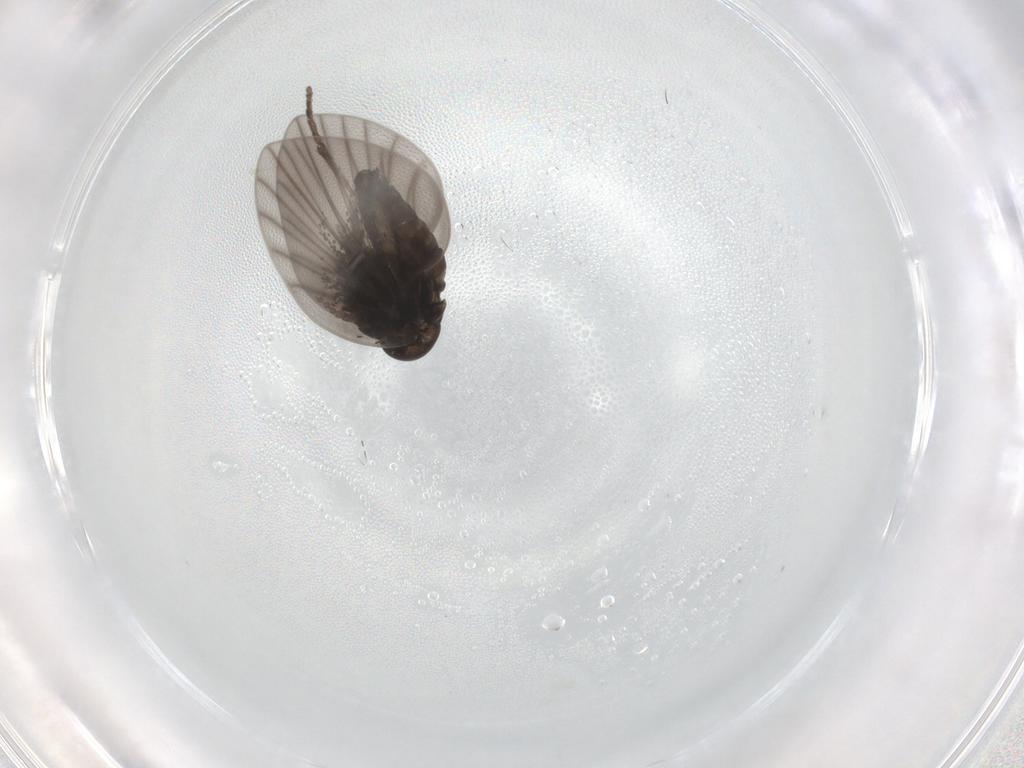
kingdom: Animalia
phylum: Arthropoda
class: Insecta
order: Diptera
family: Psychodidae
